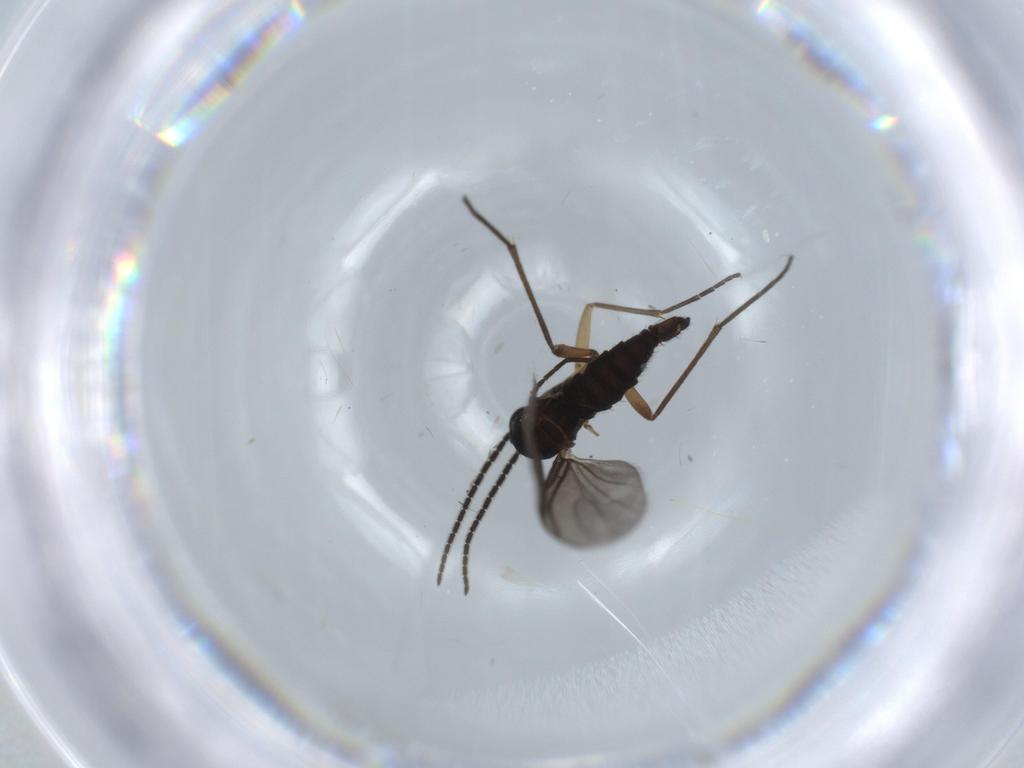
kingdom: Animalia
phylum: Arthropoda
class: Insecta
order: Diptera
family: Sciaridae
